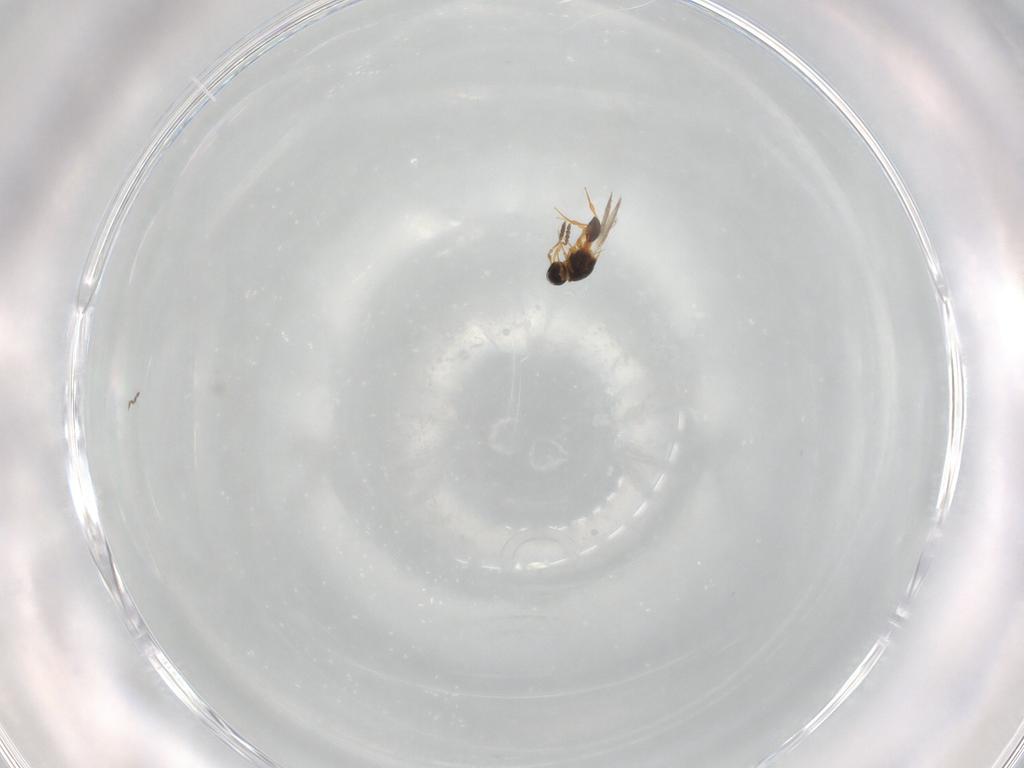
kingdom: Animalia
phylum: Arthropoda
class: Insecta
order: Hymenoptera
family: Platygastridae
